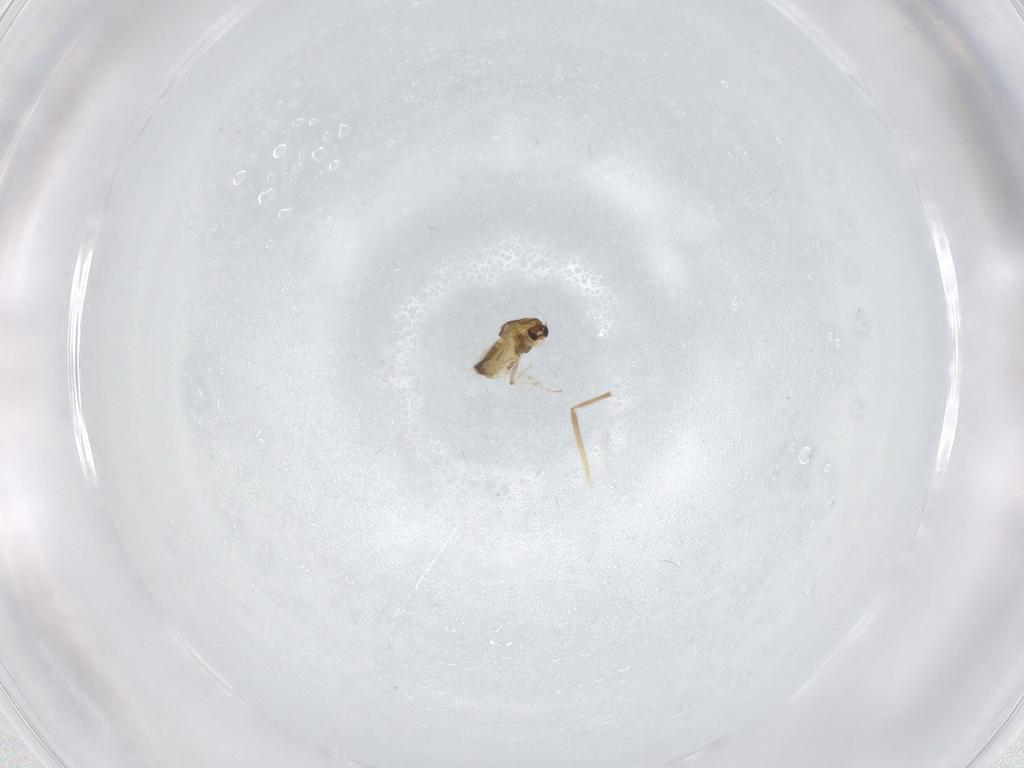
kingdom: Animalia
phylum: Arthropoda
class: Insecta
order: Diptera
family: Chironomidae
